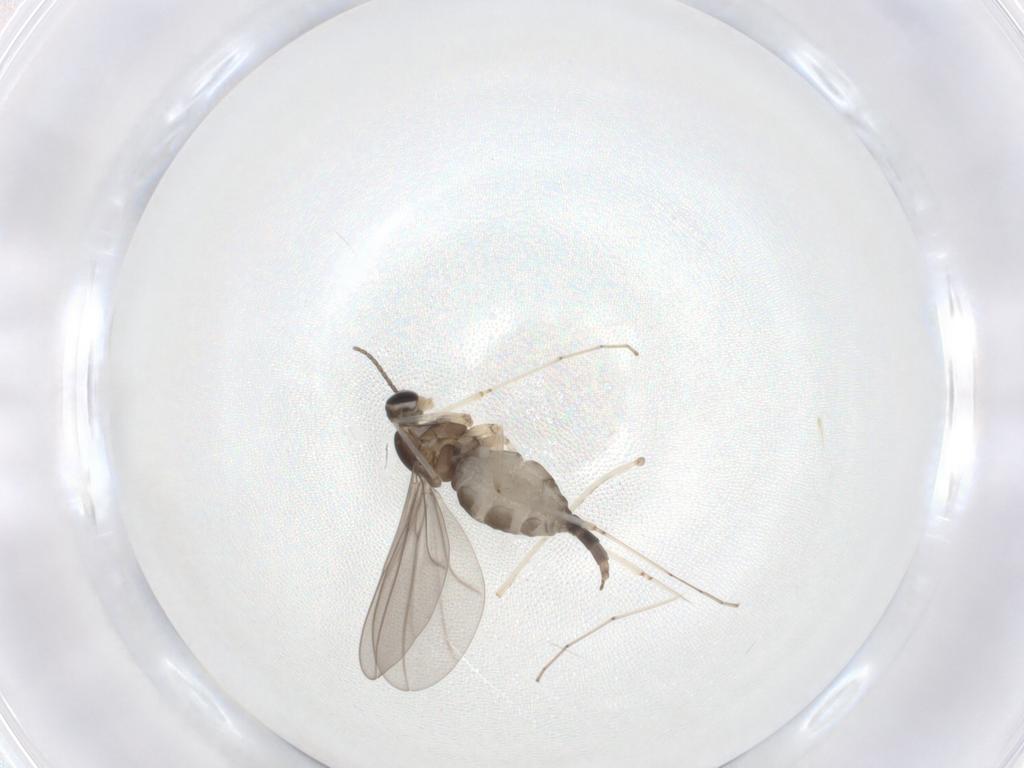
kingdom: Animalia
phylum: Arthropoda
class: Insecta
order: Diptera
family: Cecidomyiidae
